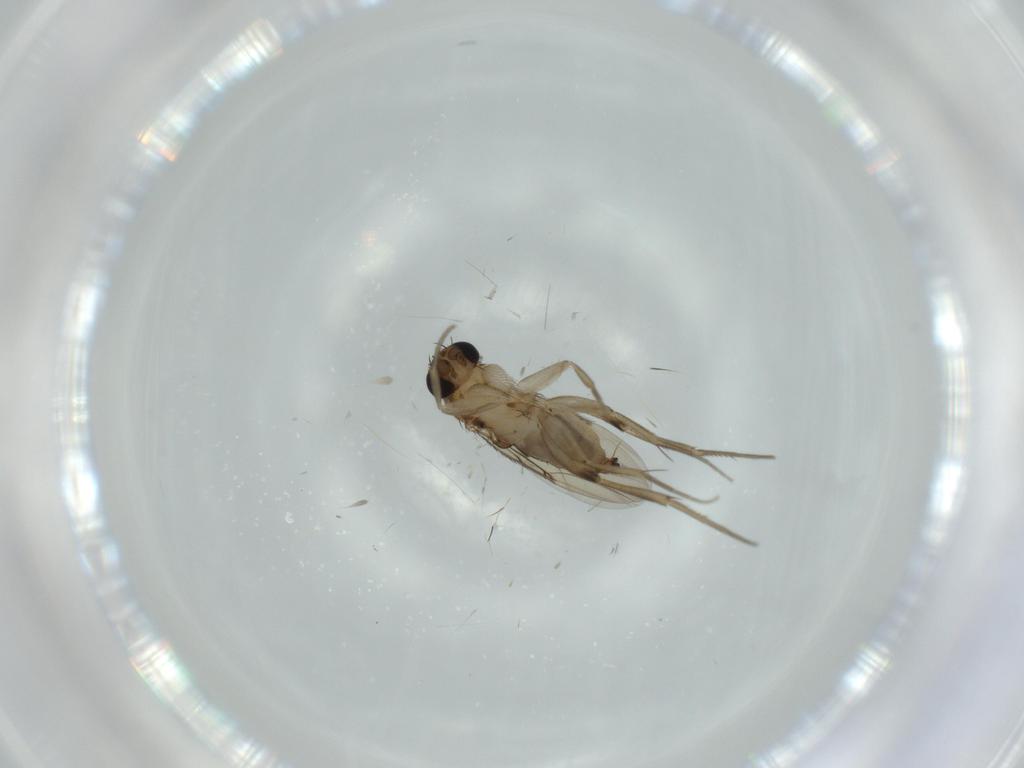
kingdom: Animalia
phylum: Arthropoda
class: Insecta
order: Diptera
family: Phoridae
